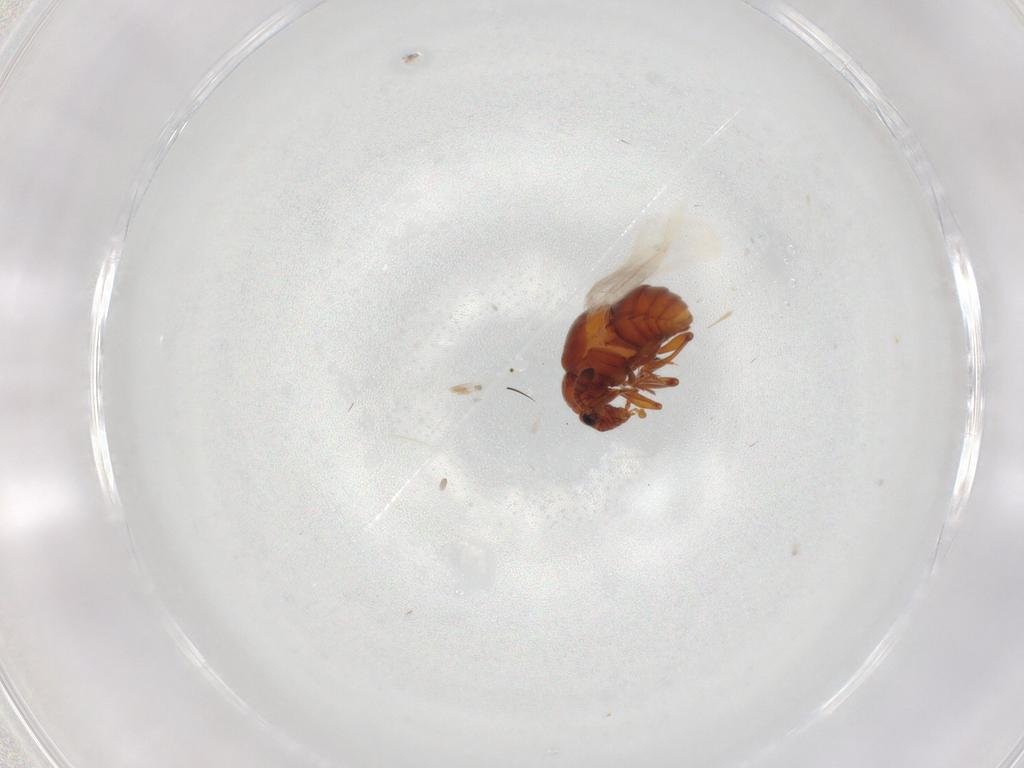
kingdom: Animalia
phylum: Arthropoda
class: Insecta
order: Coleoptera
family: Staphylinidae
